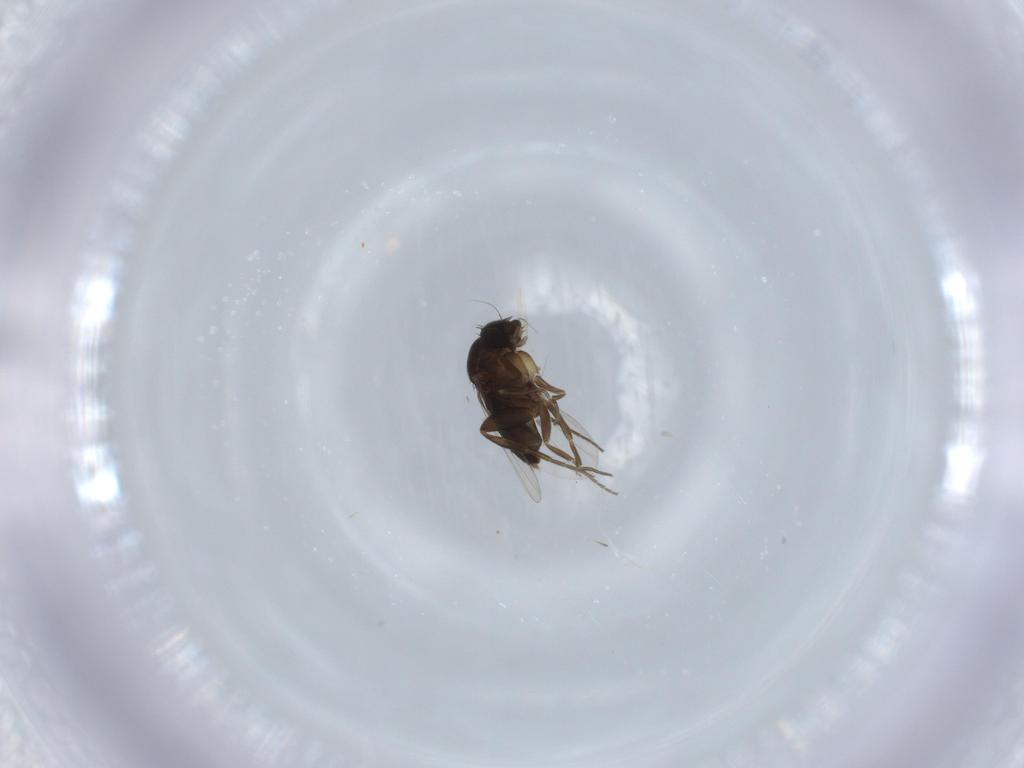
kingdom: Animalia
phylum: Arthropoda
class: Insecta
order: Diptera
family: Phoridae
